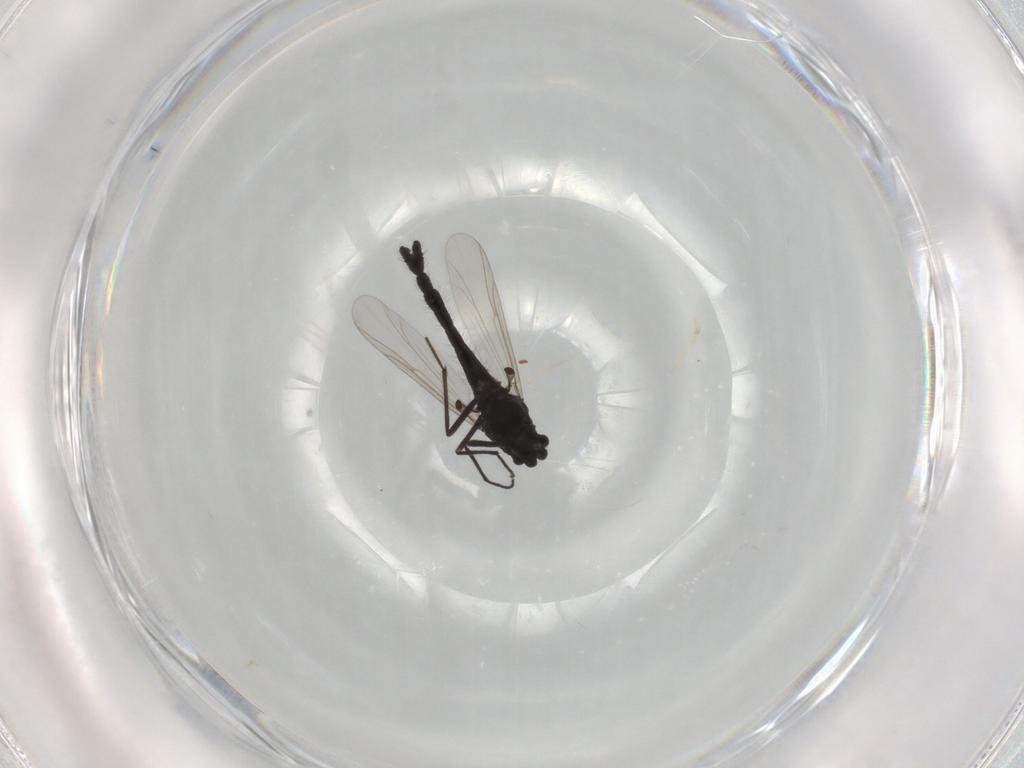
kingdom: Animalia
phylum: Arthropoda
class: Insecta
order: Diptera
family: Chironomidae
